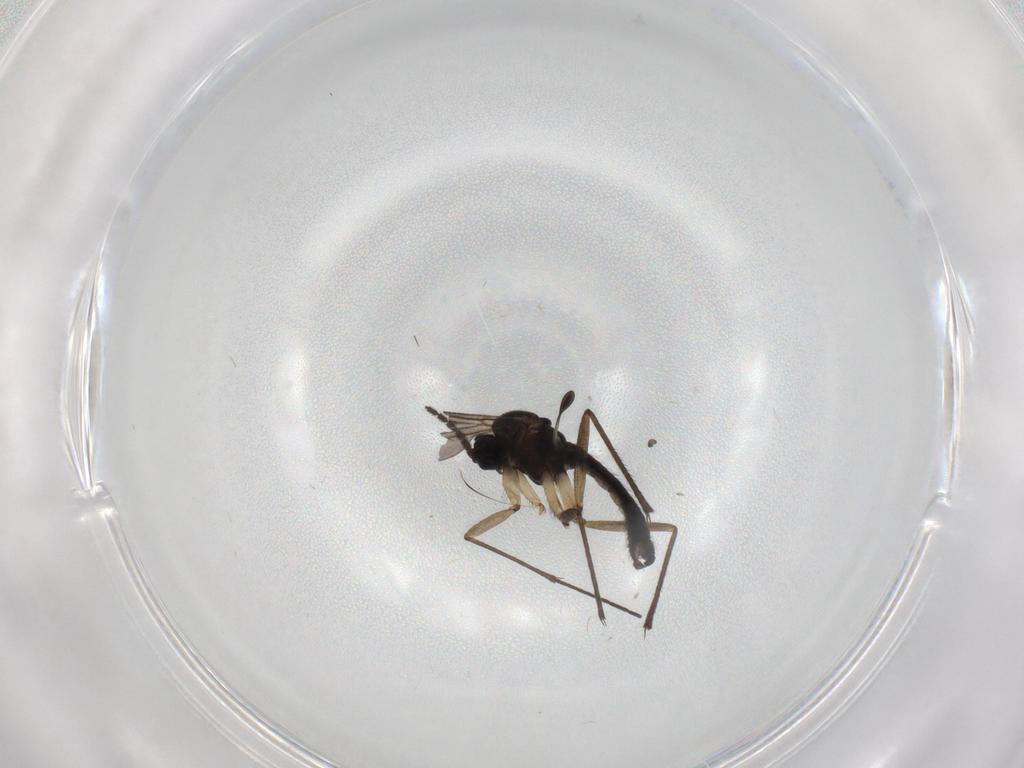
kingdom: Animalia
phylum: Arthropoda
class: Insecta
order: Diptera
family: Sciaridae
